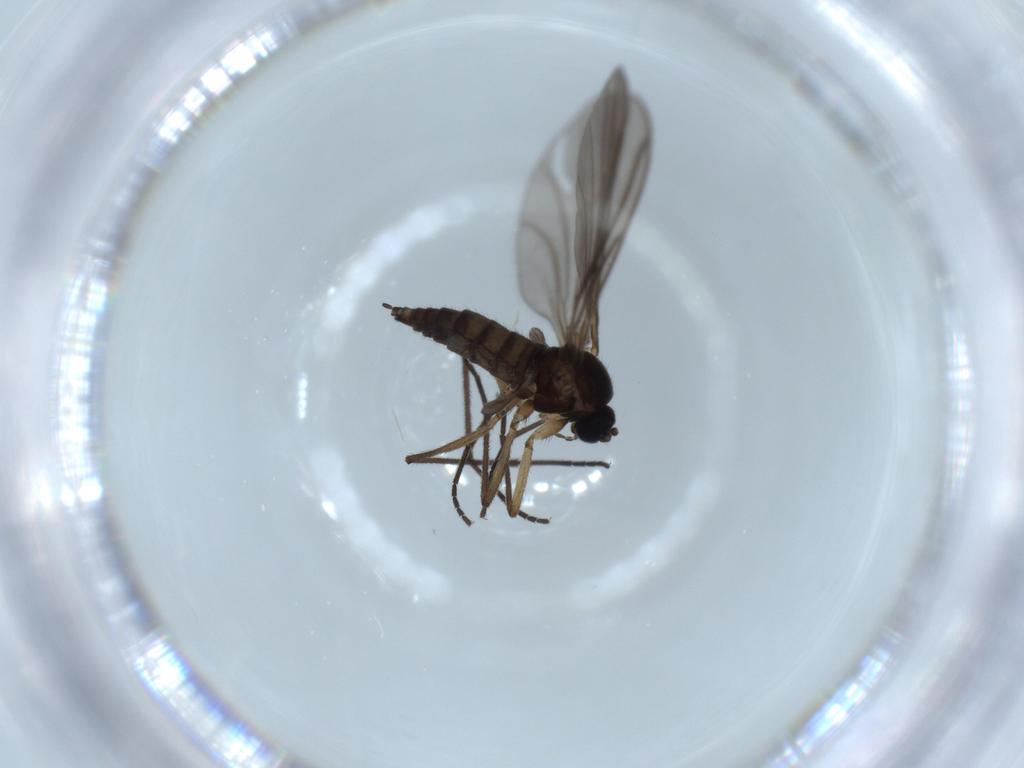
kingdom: Animalia
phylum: Arthropoda
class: Insecta
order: Diptera
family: Sciaridae
